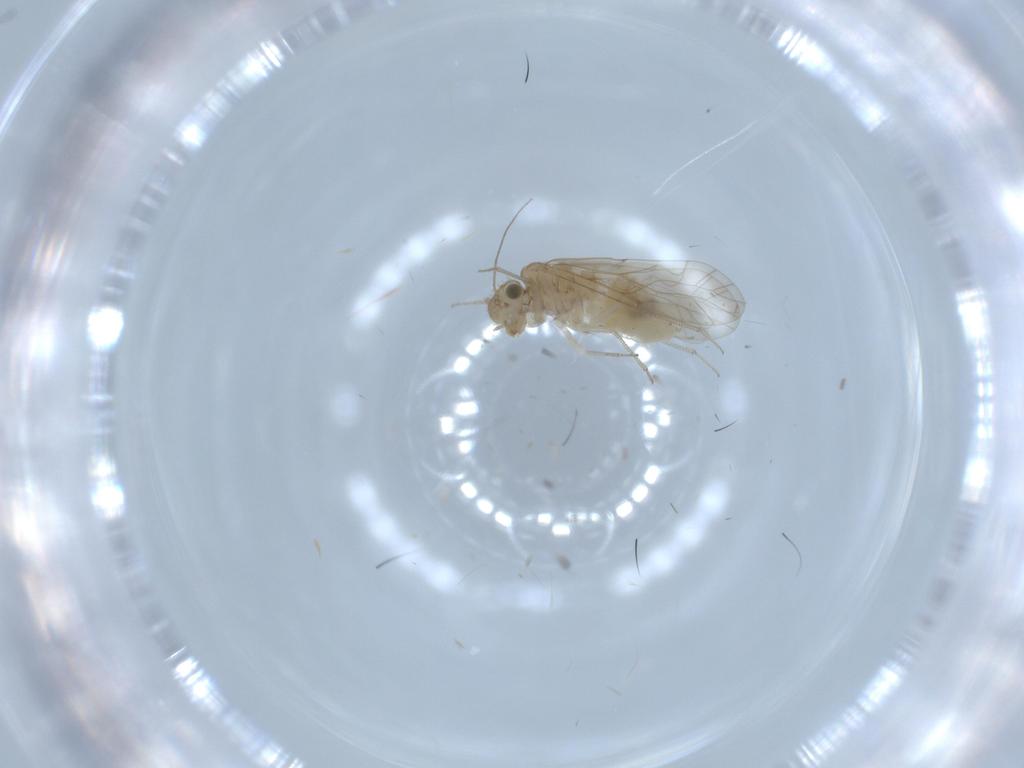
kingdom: Animalia
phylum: Arthropoda
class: Insecta
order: Psocodea
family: Lachesillidae
